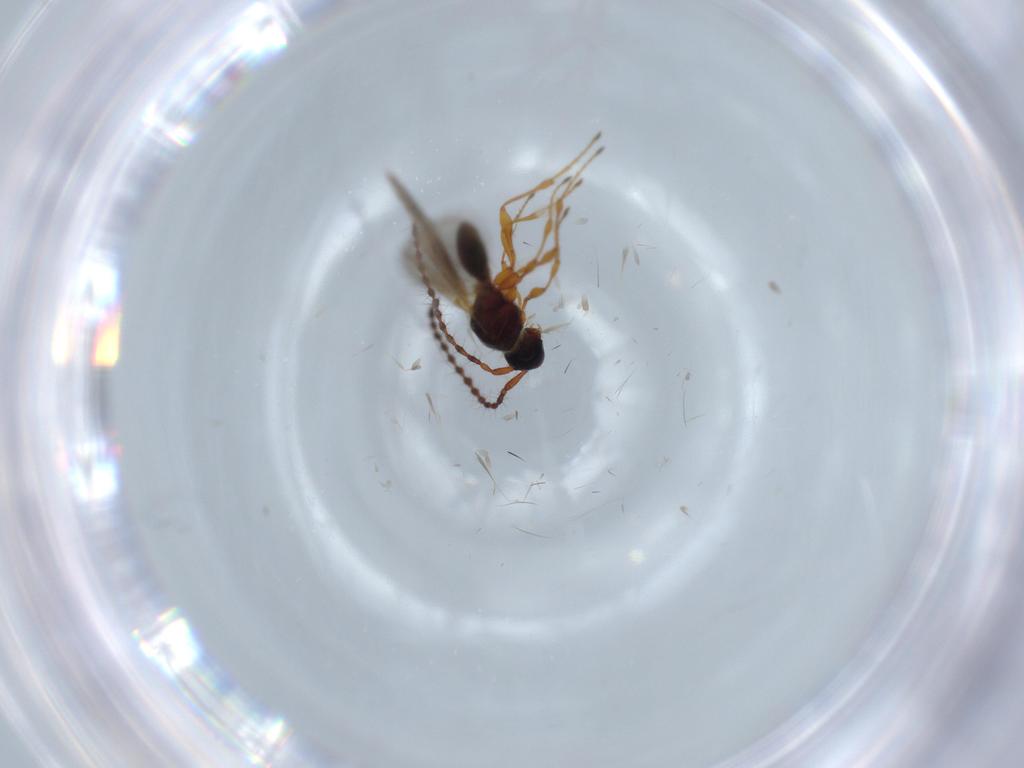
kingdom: Animalia
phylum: Arthropoda
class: Insecta
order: Hymenoptera
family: Diapriidae
